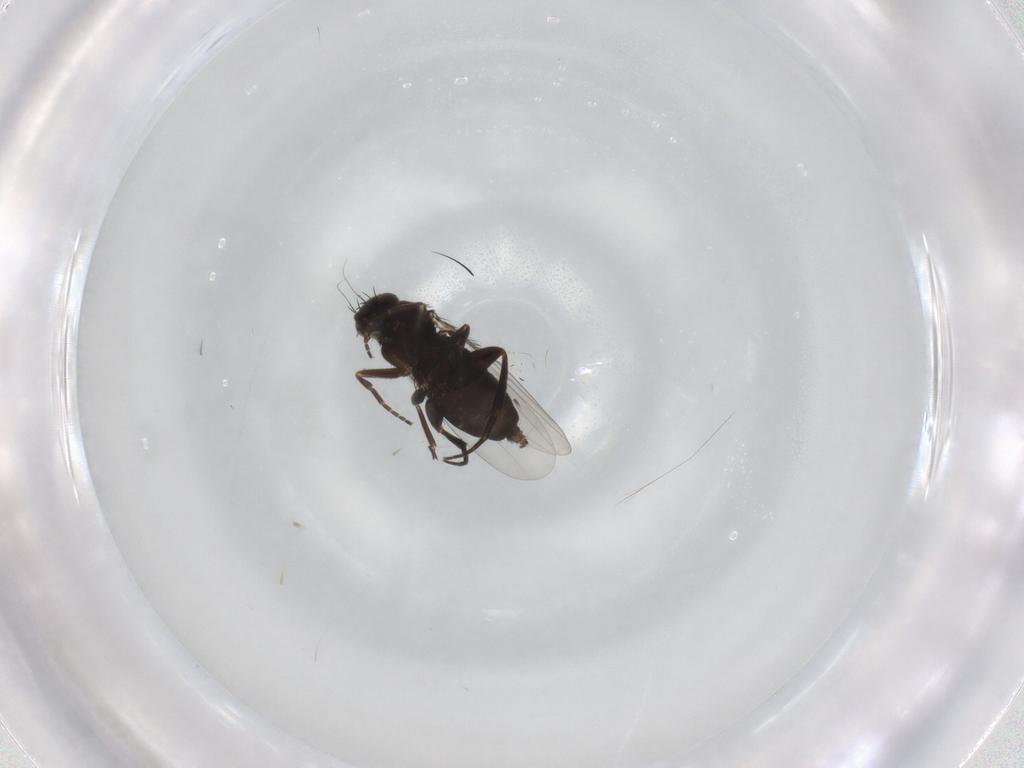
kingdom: Animalia
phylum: Arthropoda
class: Insecta
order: Diptera
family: Phoridae
